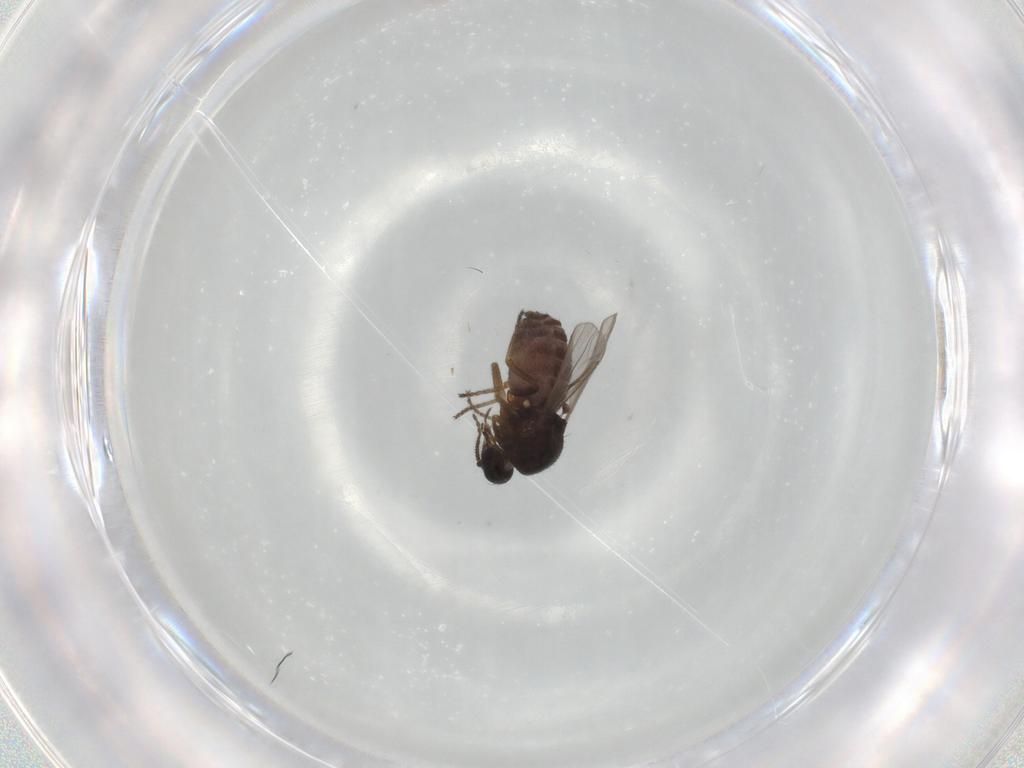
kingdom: Animalia
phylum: Arthropoda
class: Insecta
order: Diptera
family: Ceratopogonidae
